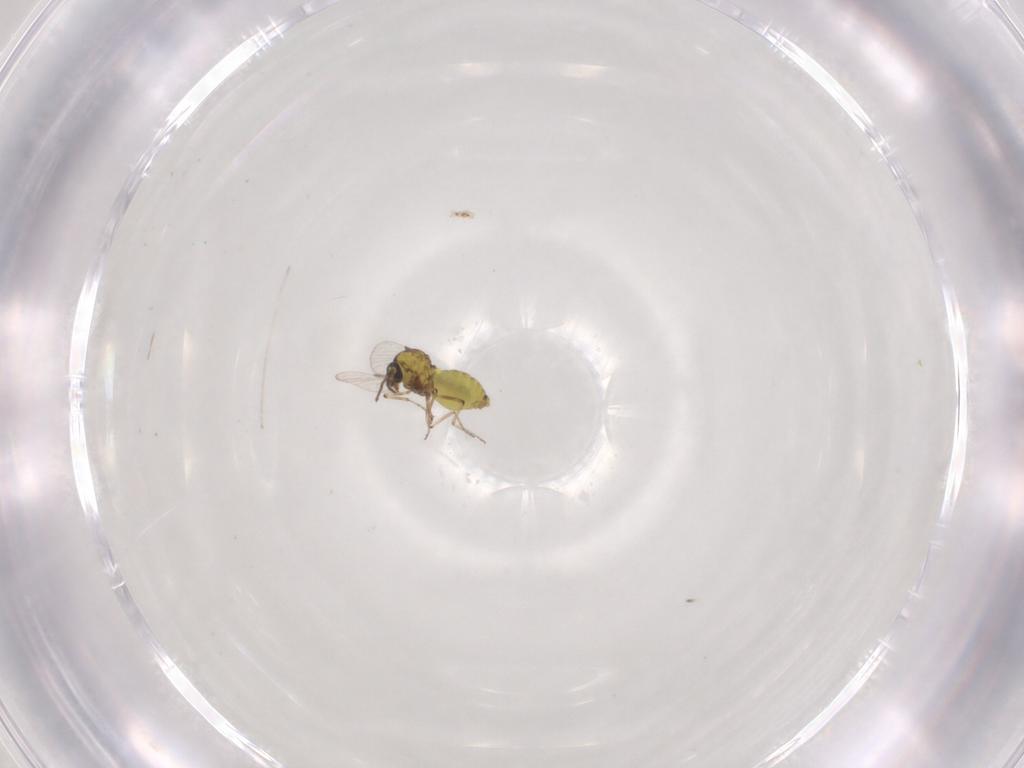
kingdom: Animalia
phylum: Arthropoda
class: Insecta
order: Diptera
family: Ceratopogonidae
